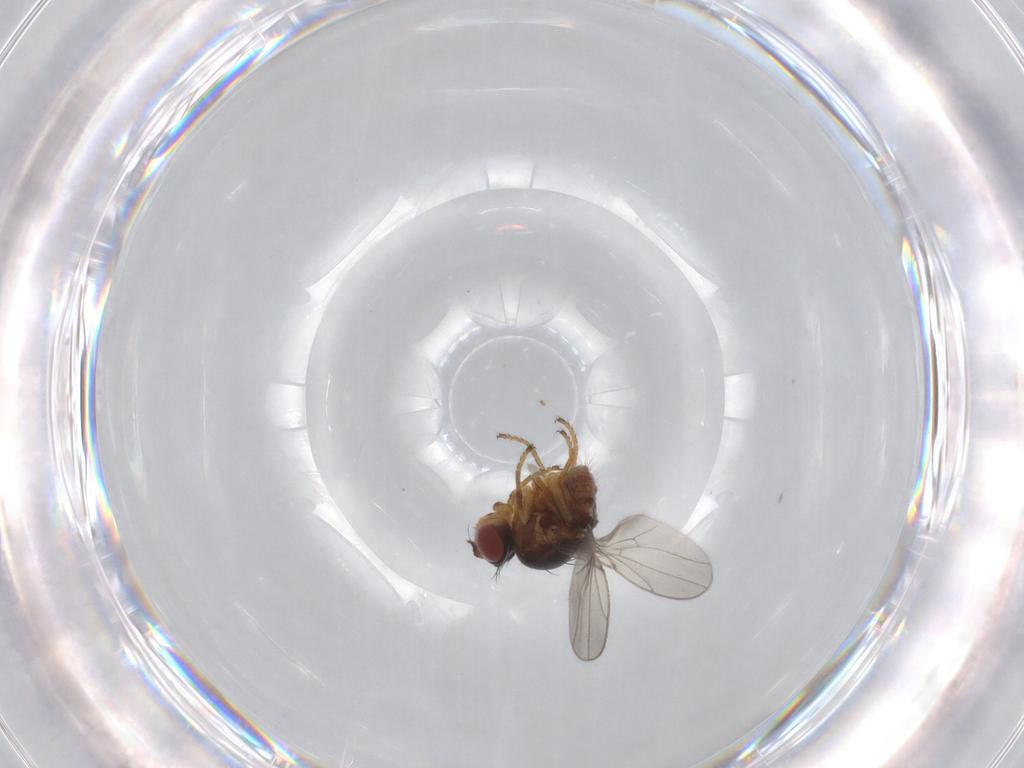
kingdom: Animalia
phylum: Arthropoda
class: Insecta
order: Diptera
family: Ephydridae
